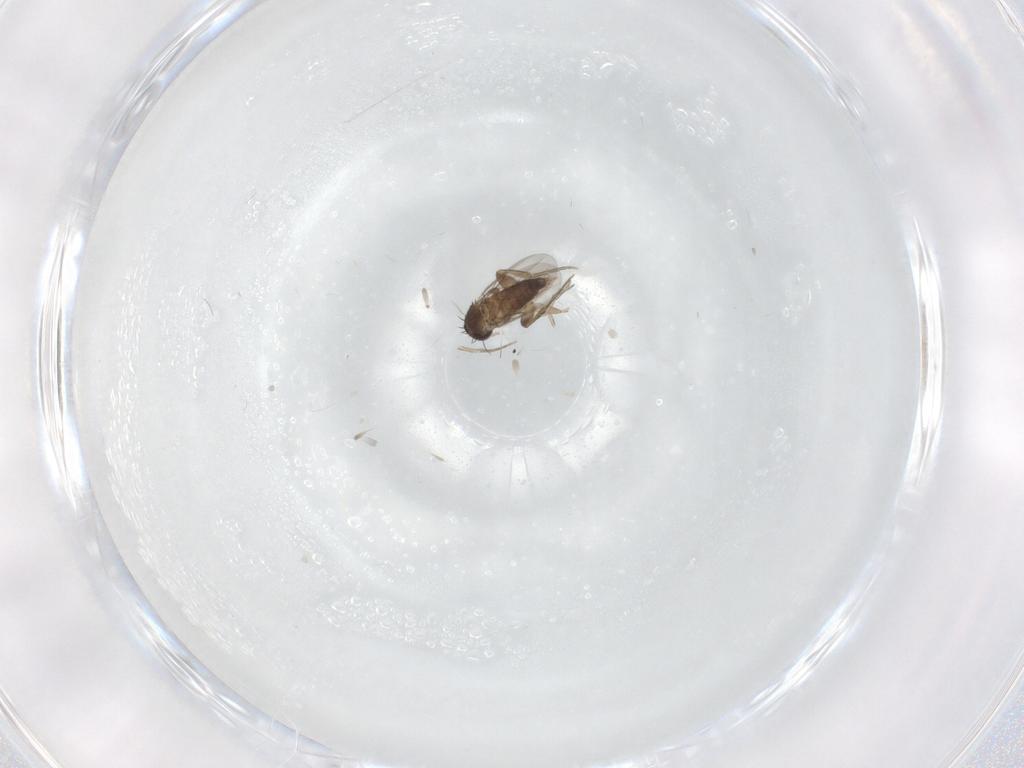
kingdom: Animalia
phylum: Arthropoda
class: Insecta
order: Diptera
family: Phoridae
